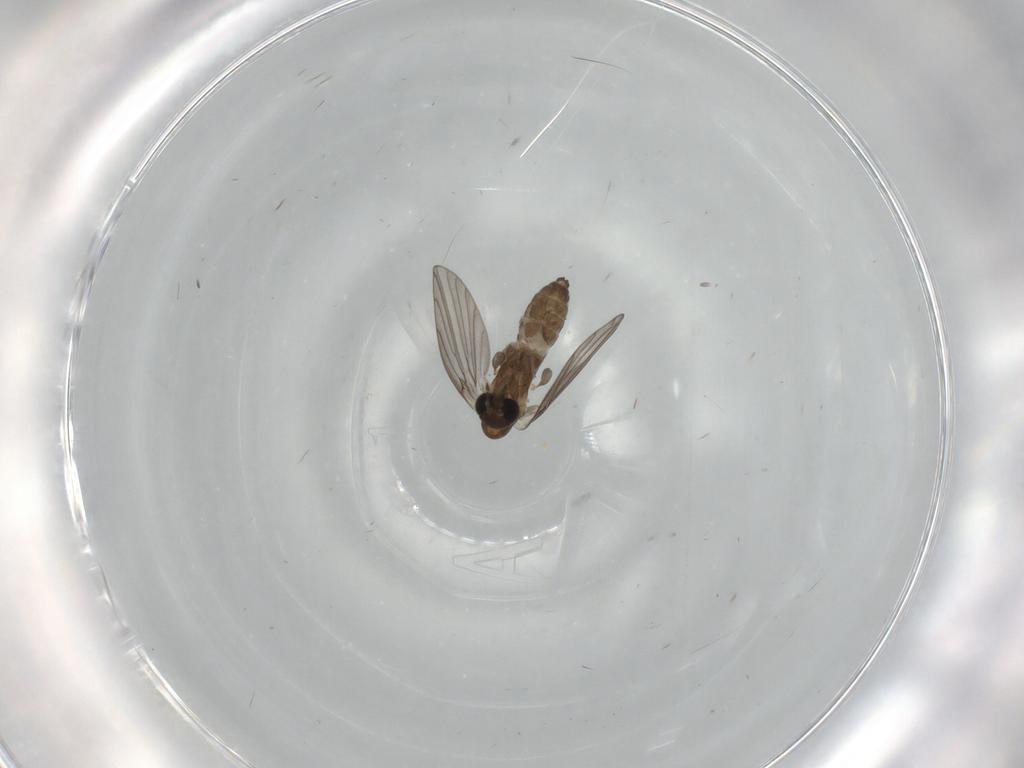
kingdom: Animalia
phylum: Arthropoda
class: Insecta
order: Diptera
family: Psychodidae
